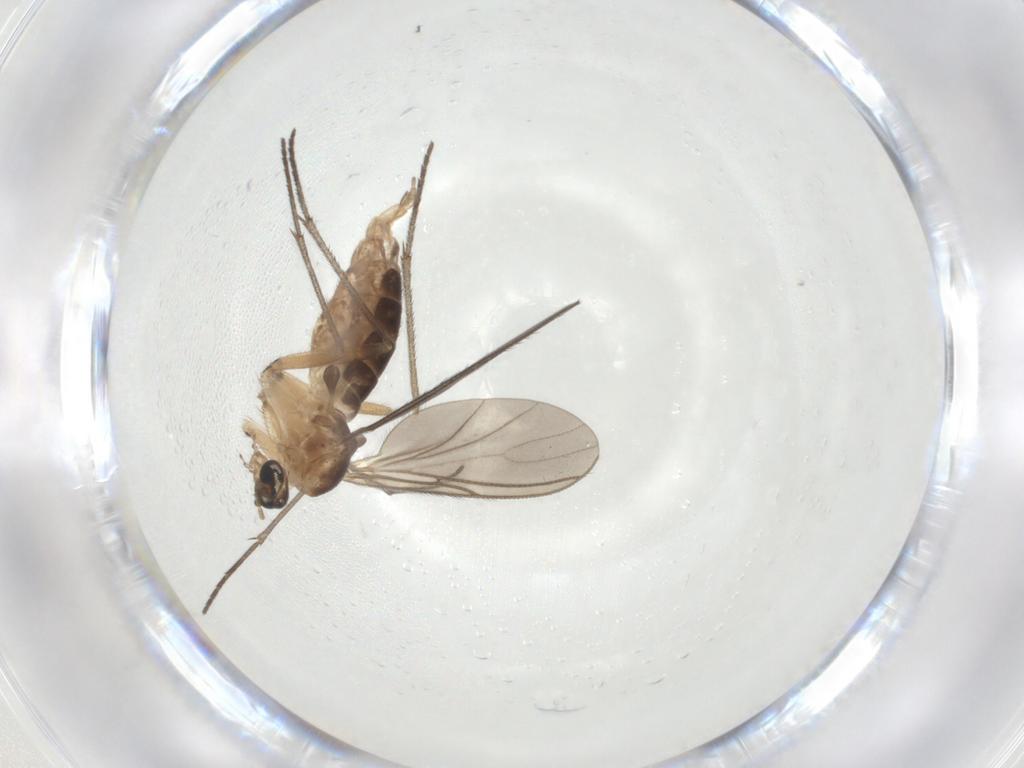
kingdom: Animalia
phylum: Arthropoda
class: Insecta
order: Diptera
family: Sciaridae
